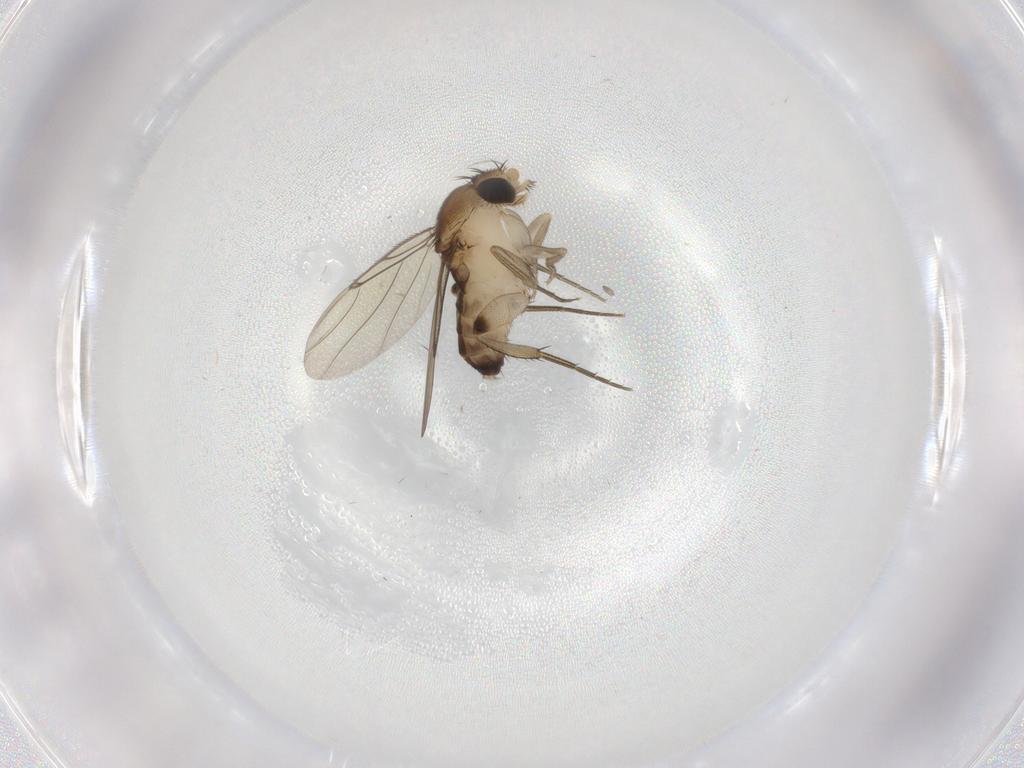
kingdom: Animalia
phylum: Arthropoda
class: Insecta
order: Diptera
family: Phoridae
